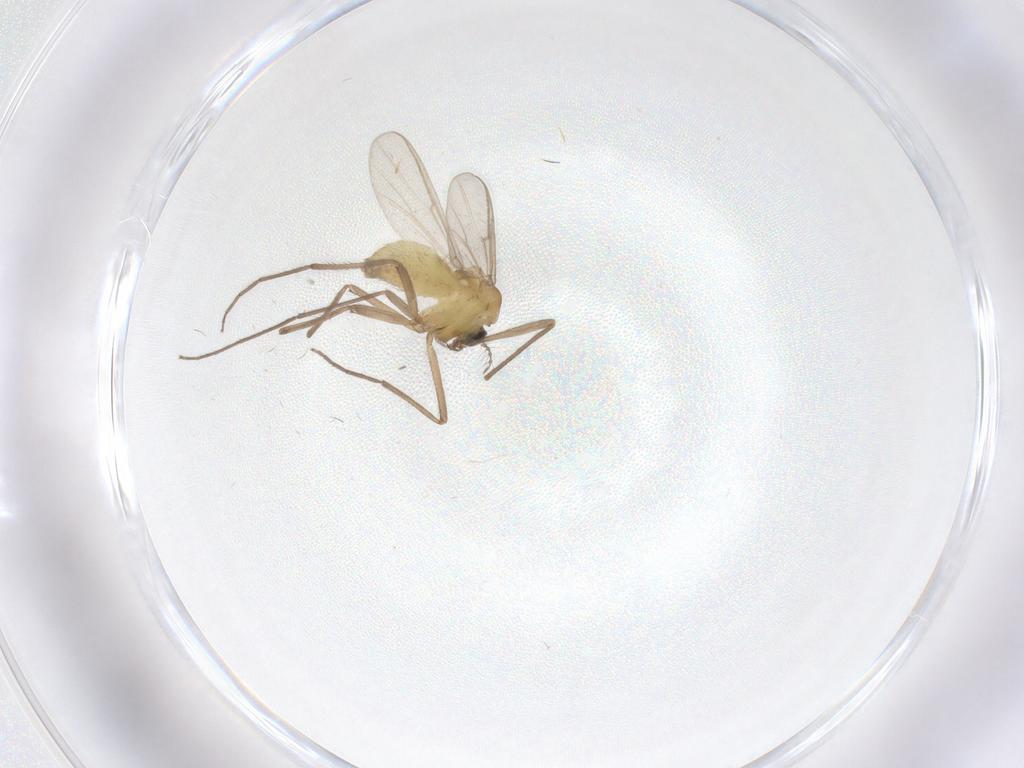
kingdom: Animalia
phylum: Arthropoda
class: Insecta
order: Diptera
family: Chironomidae
